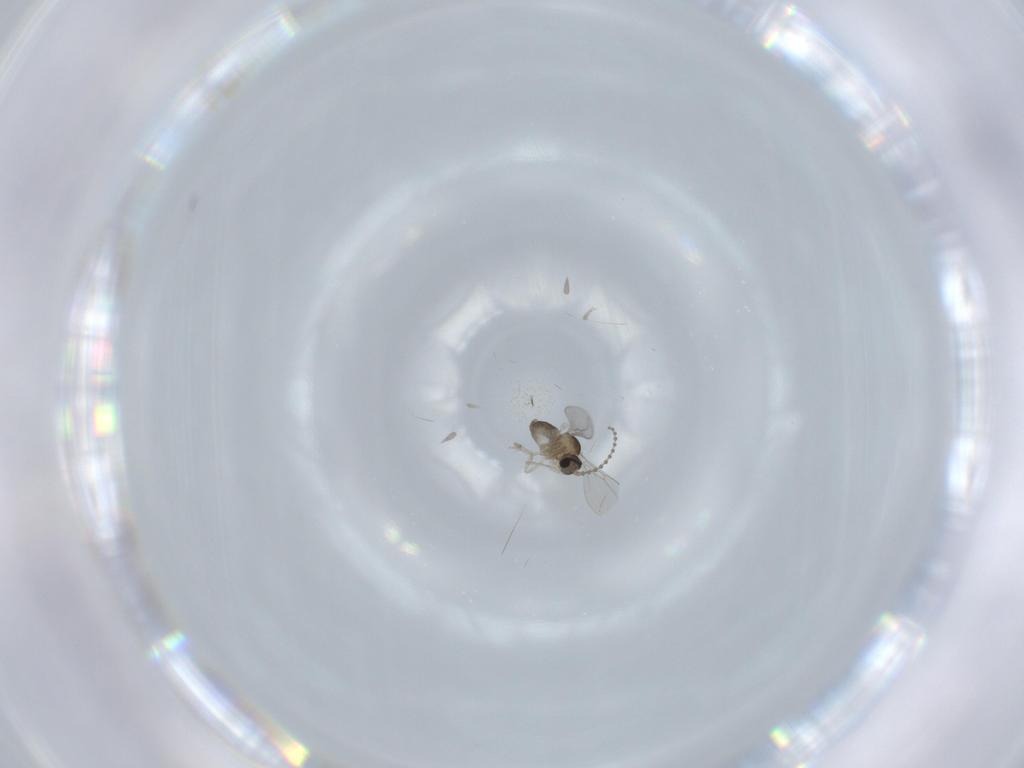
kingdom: Animalia
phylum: Arthropoda
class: Insecta
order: Diptera
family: Cecidomyiidae
